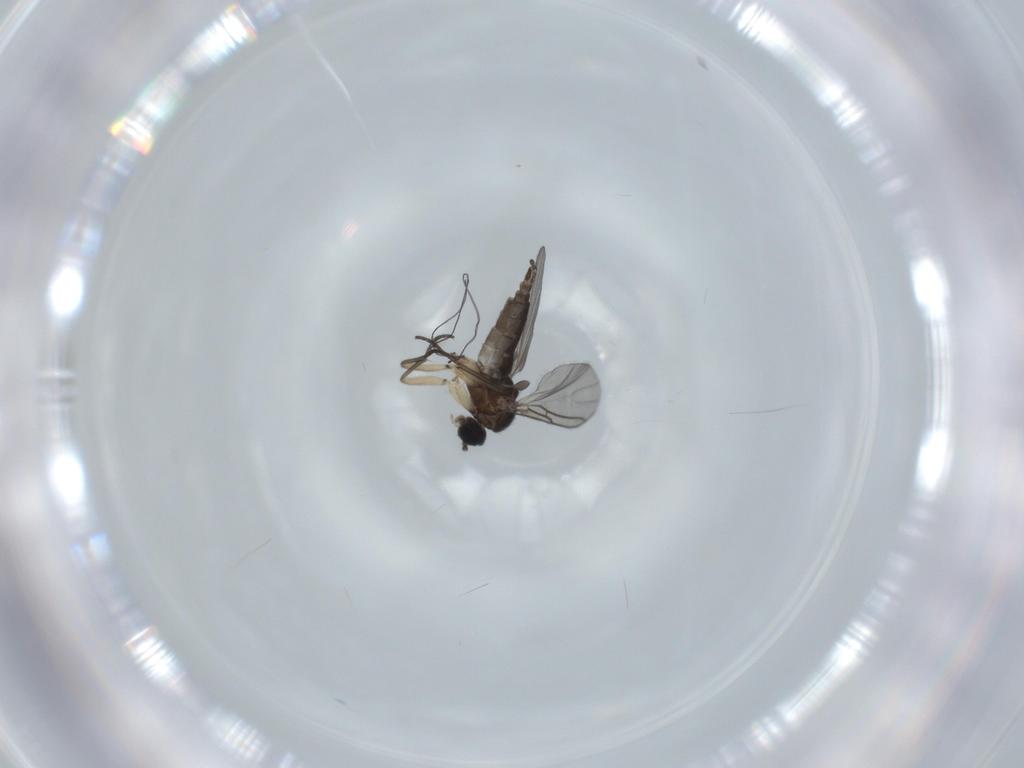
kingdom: Animalia
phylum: Arthropoda
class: Insecta
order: Diptera
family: Sciaridae
